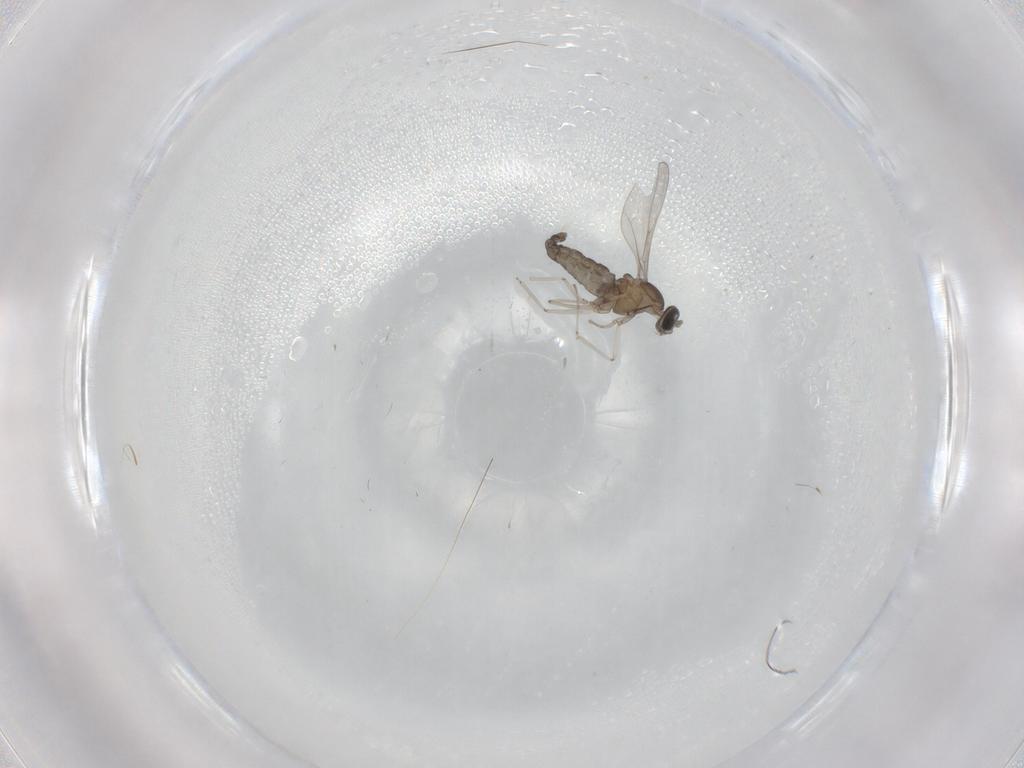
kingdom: Animalia
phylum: Arthropoda
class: Insecta
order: Diptera
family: Cecidomyiidae
